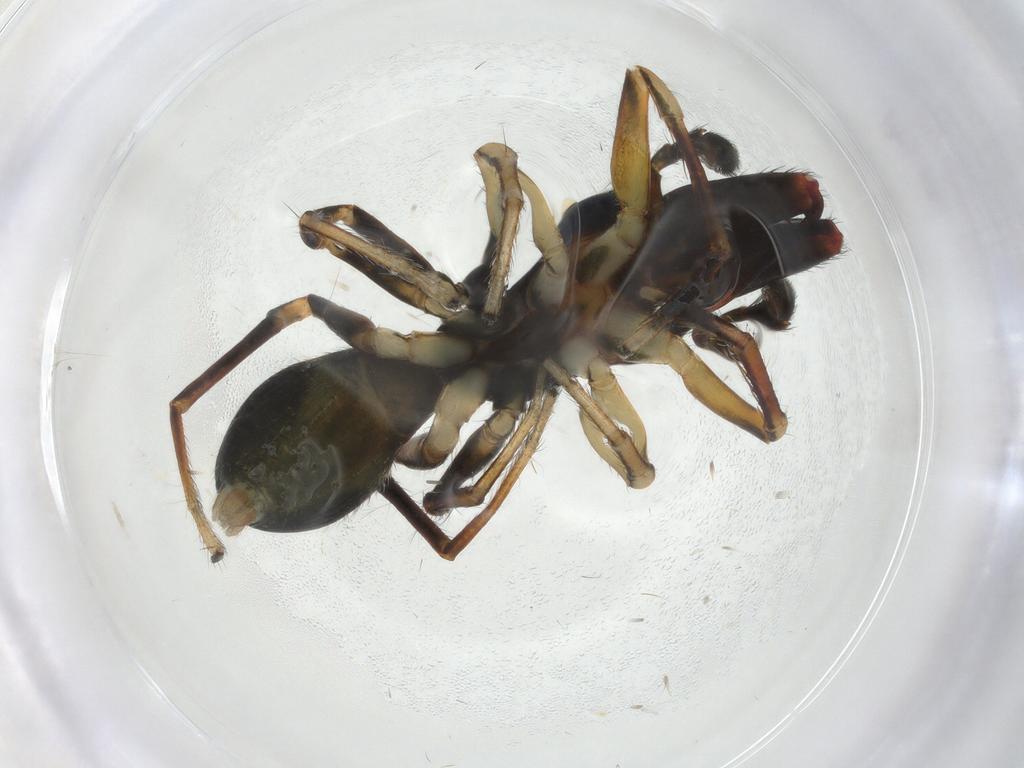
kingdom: Animalia
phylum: Arthropoda
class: Arachnida
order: Araneae
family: Salticidae
